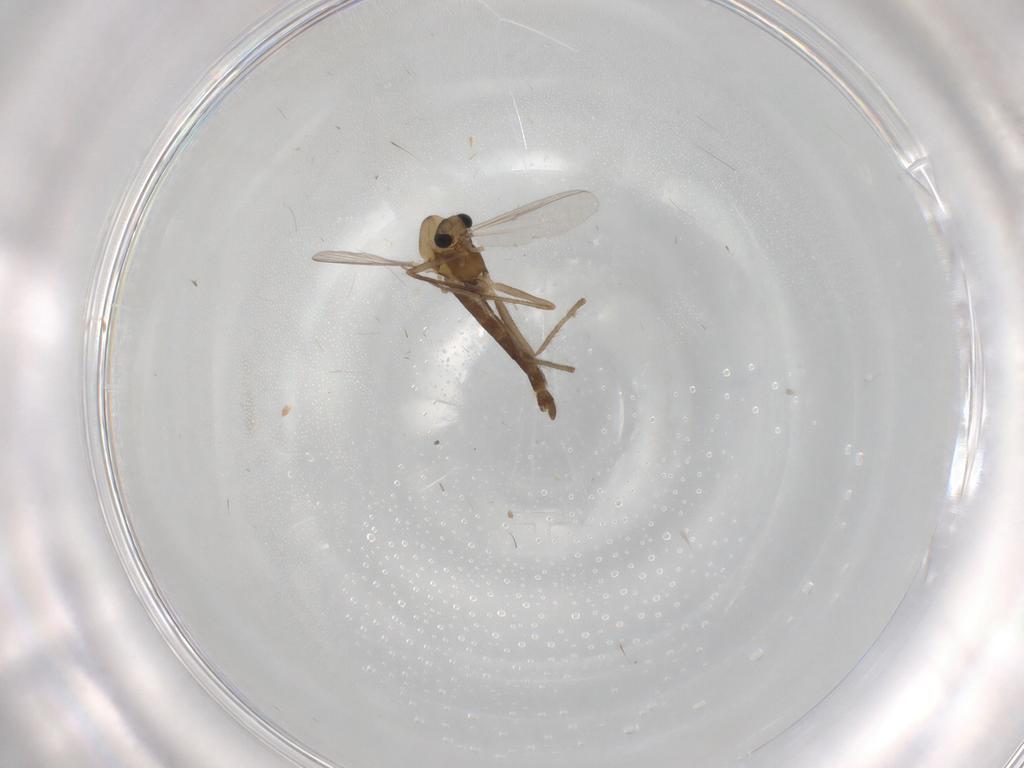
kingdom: Animalia
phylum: Arthropoda
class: Insecta
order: Diptera
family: Chironomidae
